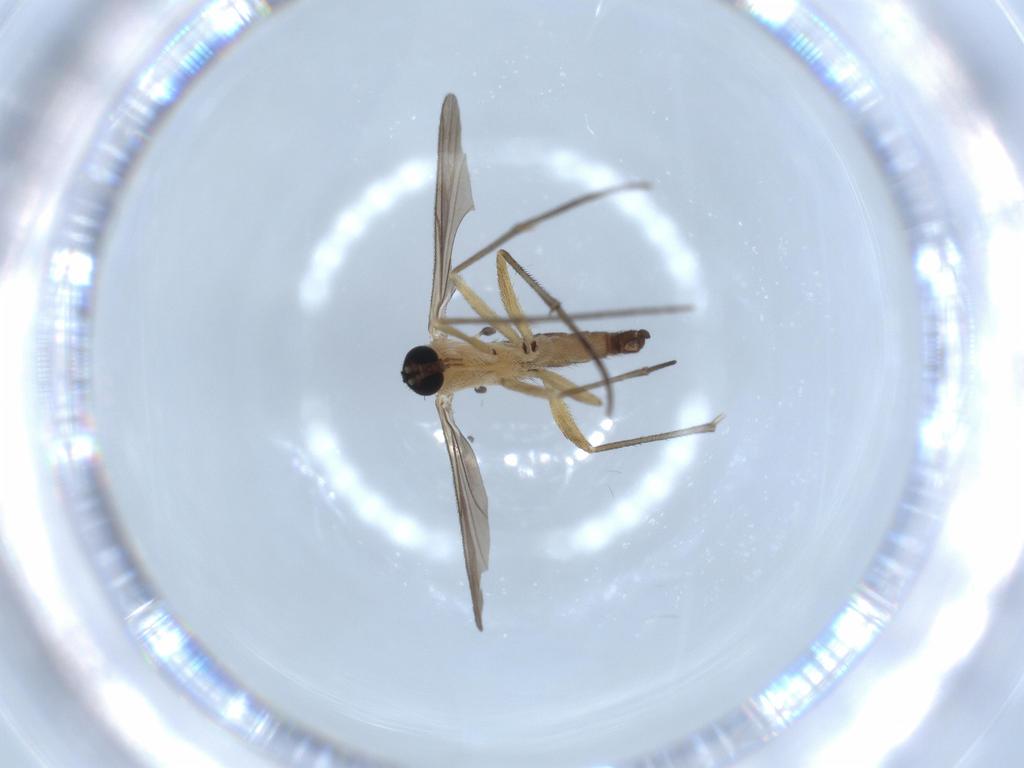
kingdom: Animalia
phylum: Arthropoda
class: Insecta
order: Diptera
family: Sciaridae
